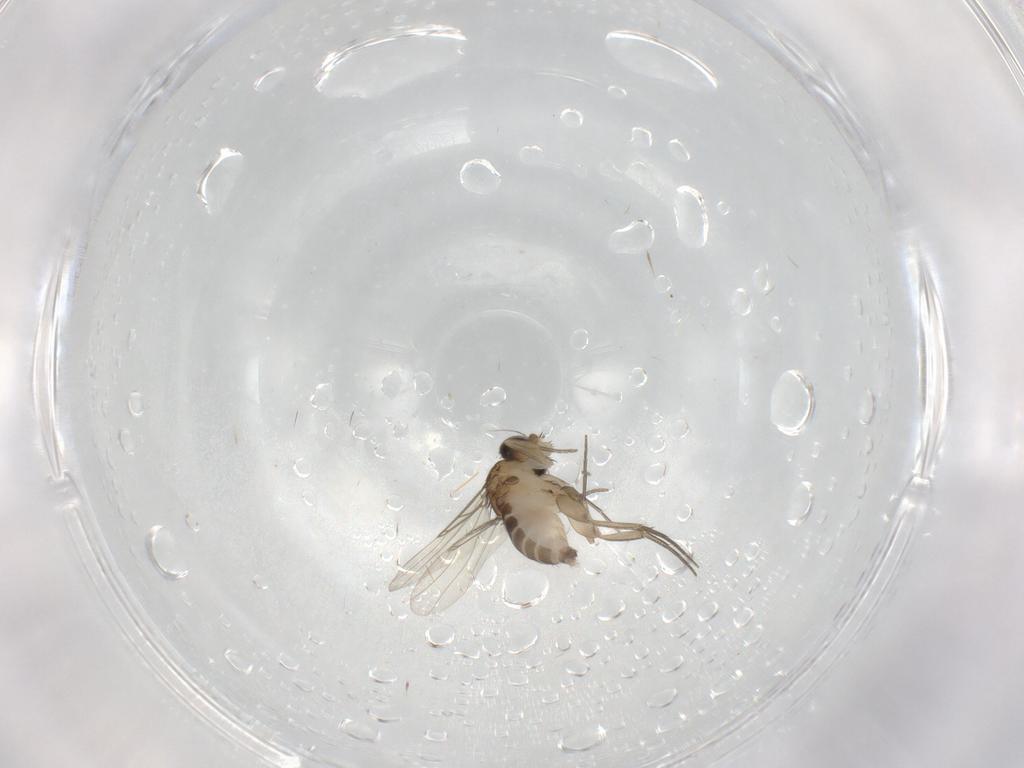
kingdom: Animalia
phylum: Arthropoda
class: Insecta
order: Diptera
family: Phoridae
